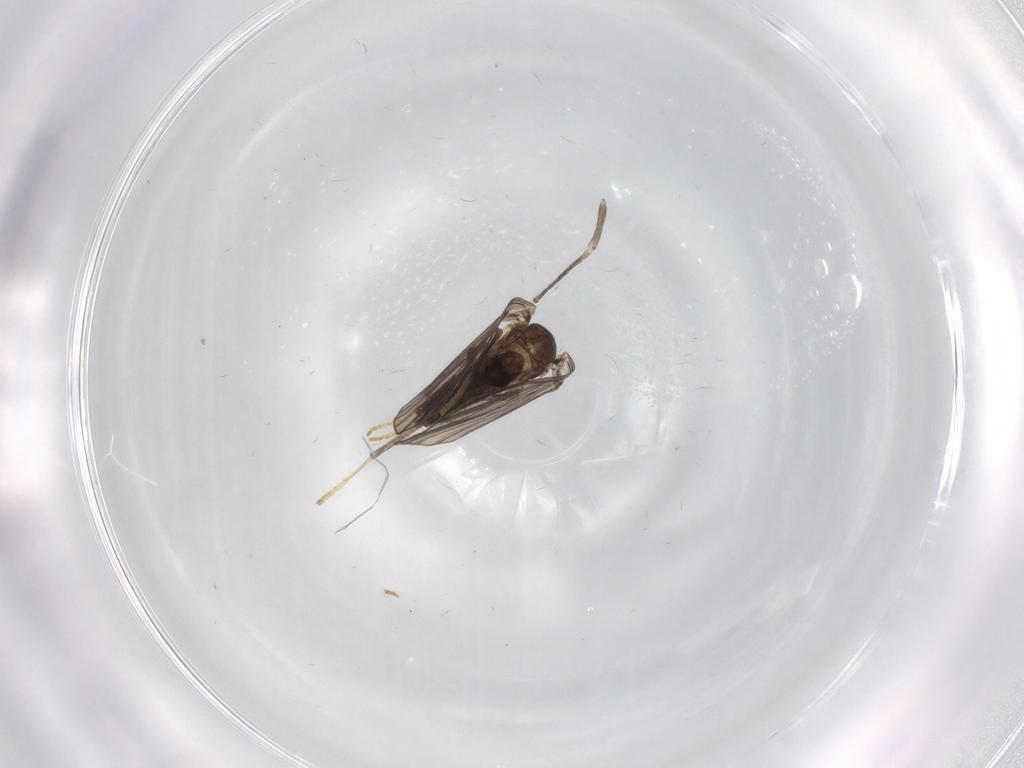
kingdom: Animalia
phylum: Arthropoda
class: Insecta
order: Diptera
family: Psychodidae
